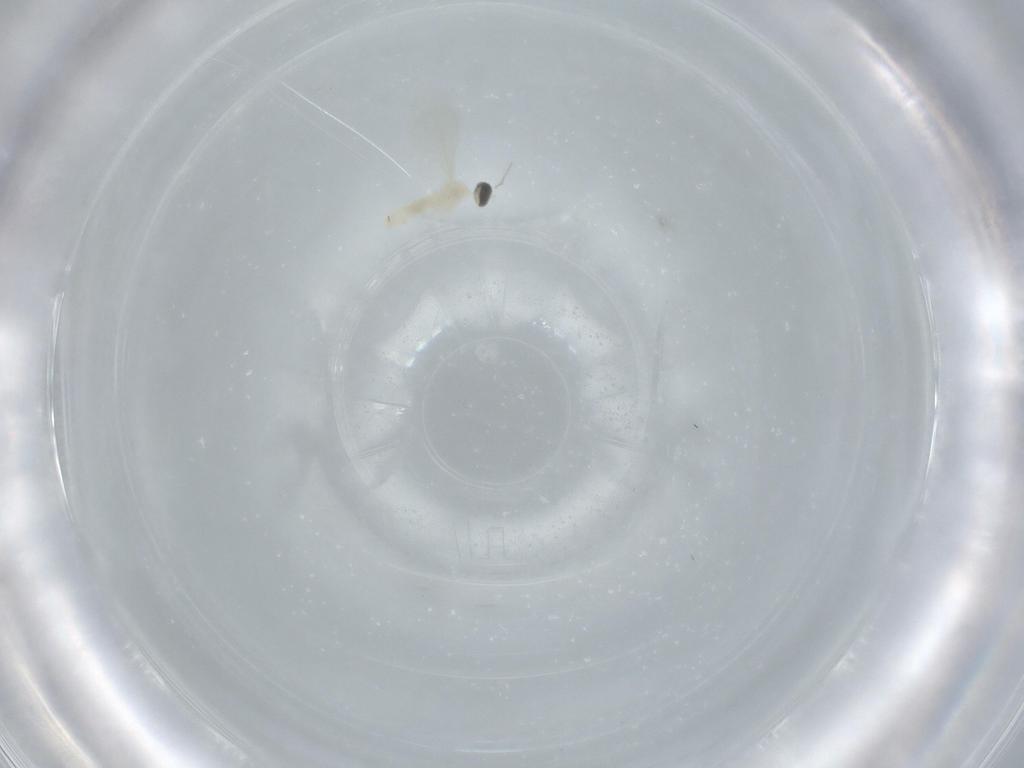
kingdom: Animalia
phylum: Arthropoda
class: Insecta
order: Diptera
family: Cecidomyiidae
